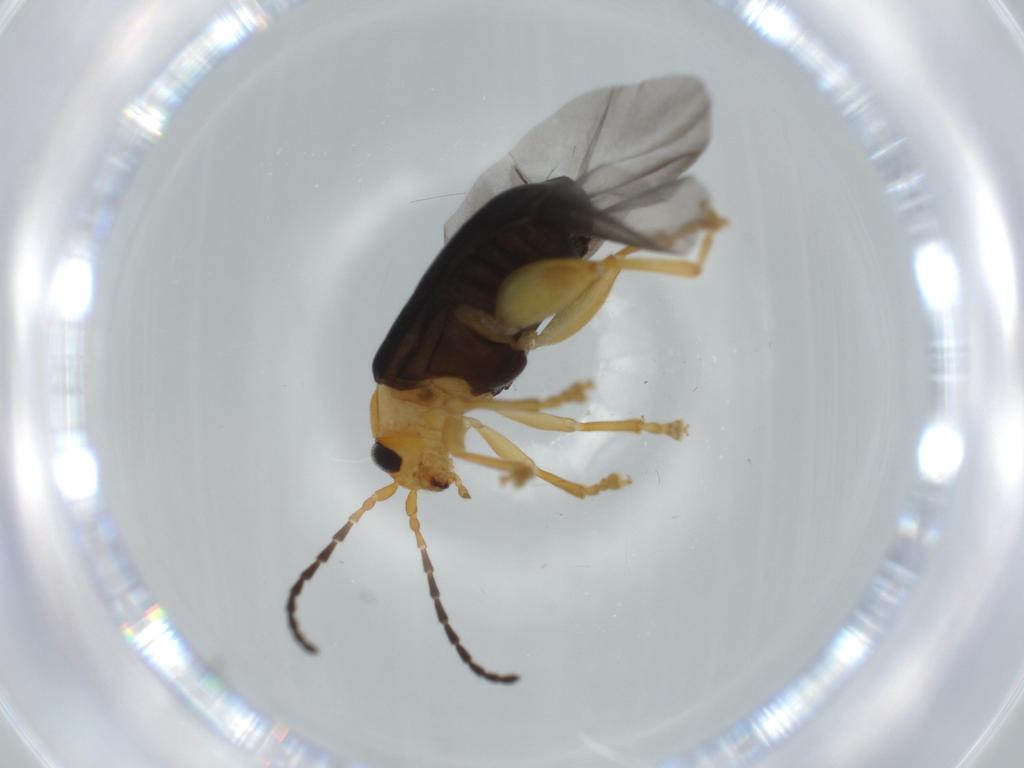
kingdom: Animalia
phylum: Arthropoda
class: Insecta
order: Coleoptera
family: Chrysomelidae
